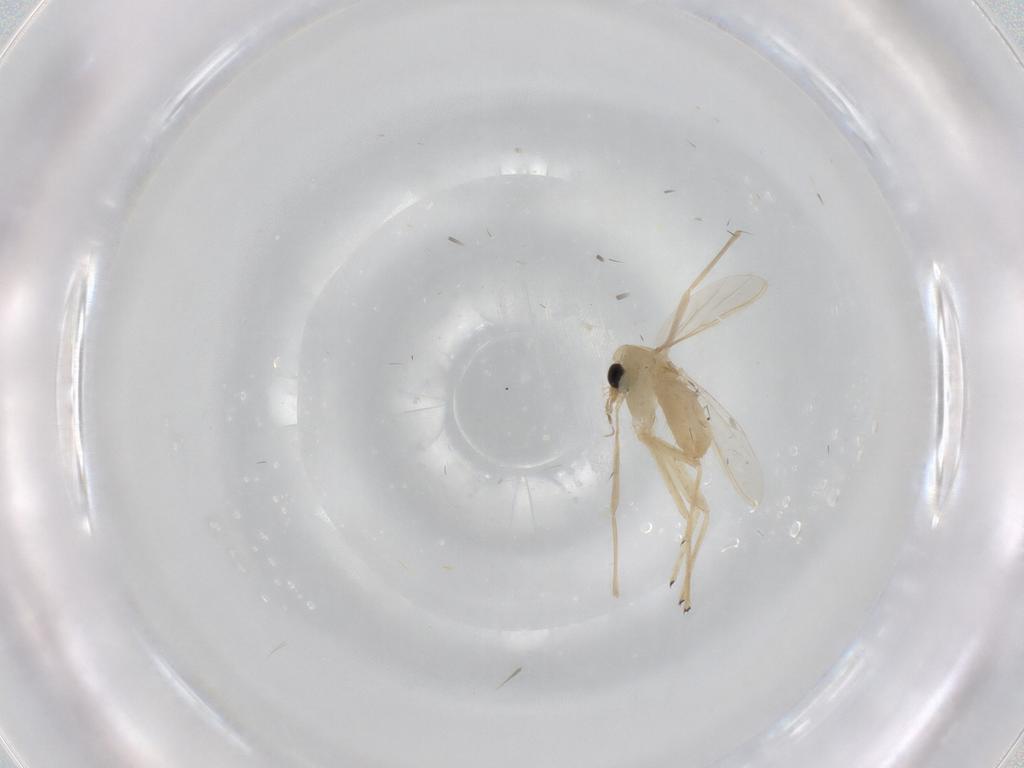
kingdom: Animalia
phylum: Arthropoda
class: Insecta
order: Diptera
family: Chironomidae
